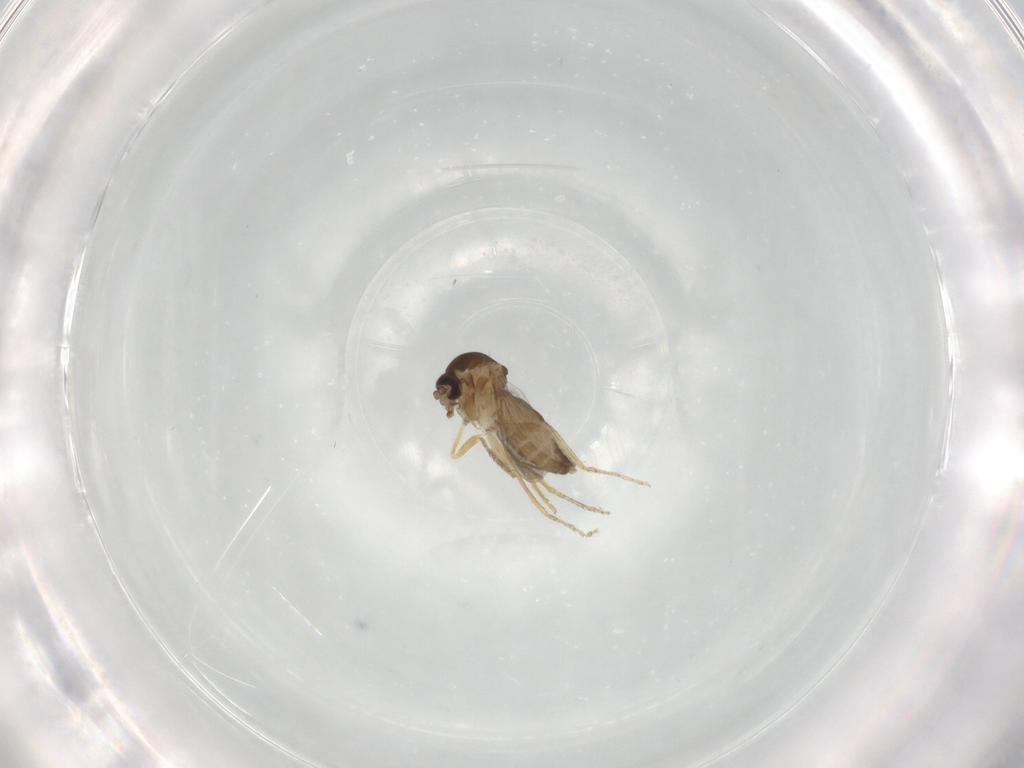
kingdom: Animalia
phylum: Arthropoda
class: Insecta
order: Diptera
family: Ceratopogonidae
